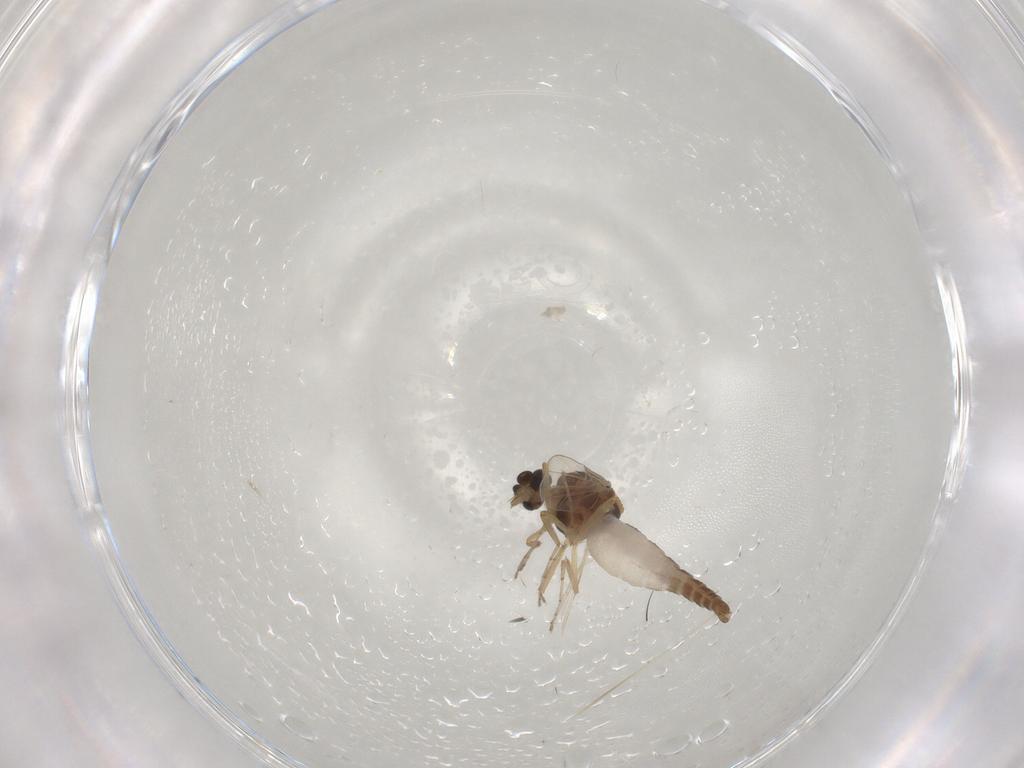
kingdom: Animalia
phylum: Arthropoda
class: Insecta
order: Diptera
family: Ceratopogonidae
